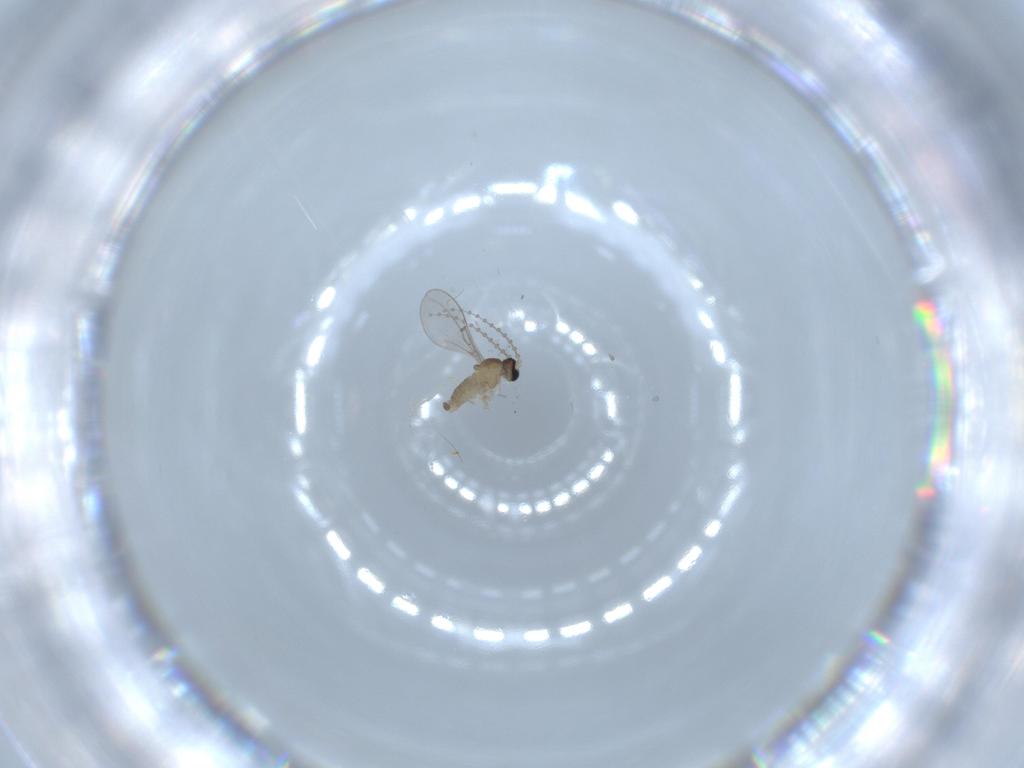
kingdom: Animalia
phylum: Arthropoda
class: Insecta
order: Diptera
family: Cecidomyiidae
